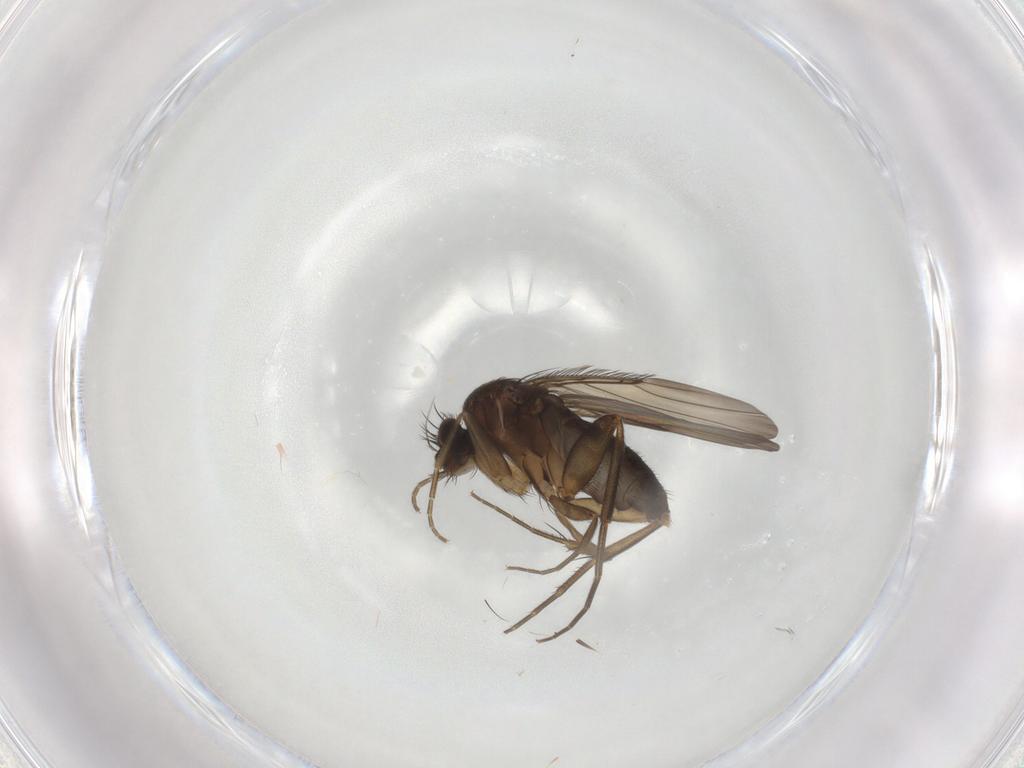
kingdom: Animalia
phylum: Arthropoda
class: Insecta
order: Diptera
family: Phoridae
